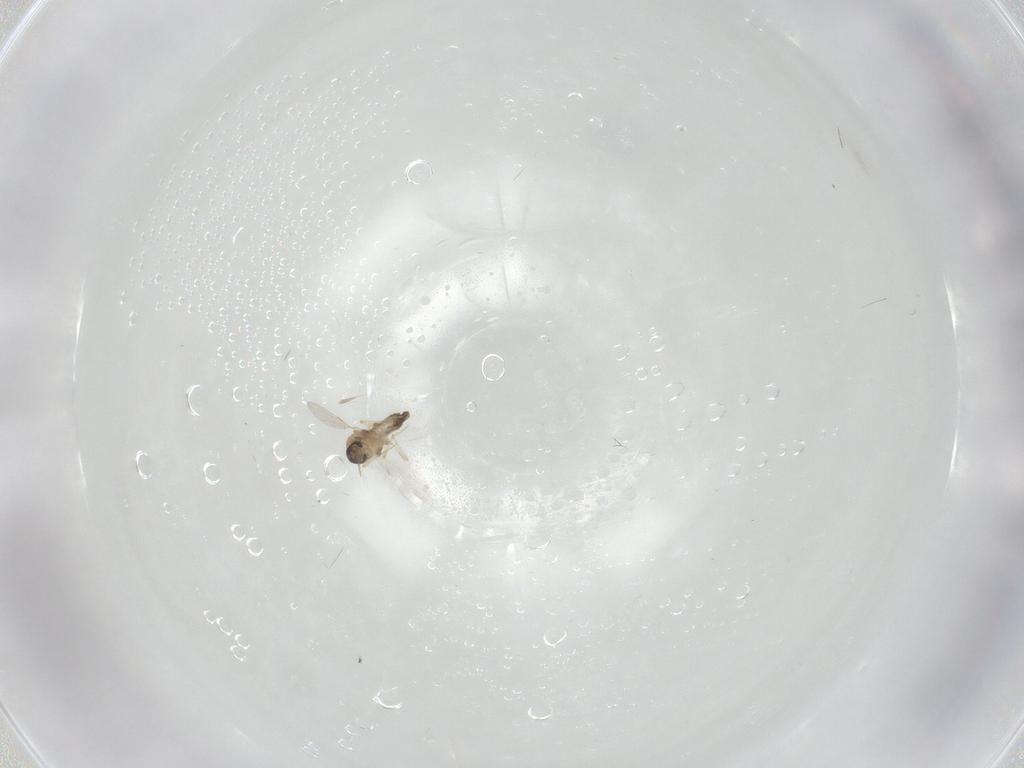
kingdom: Animalia
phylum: Arthropoda
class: Insecta
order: Diptera
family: Ceratopogonidae
